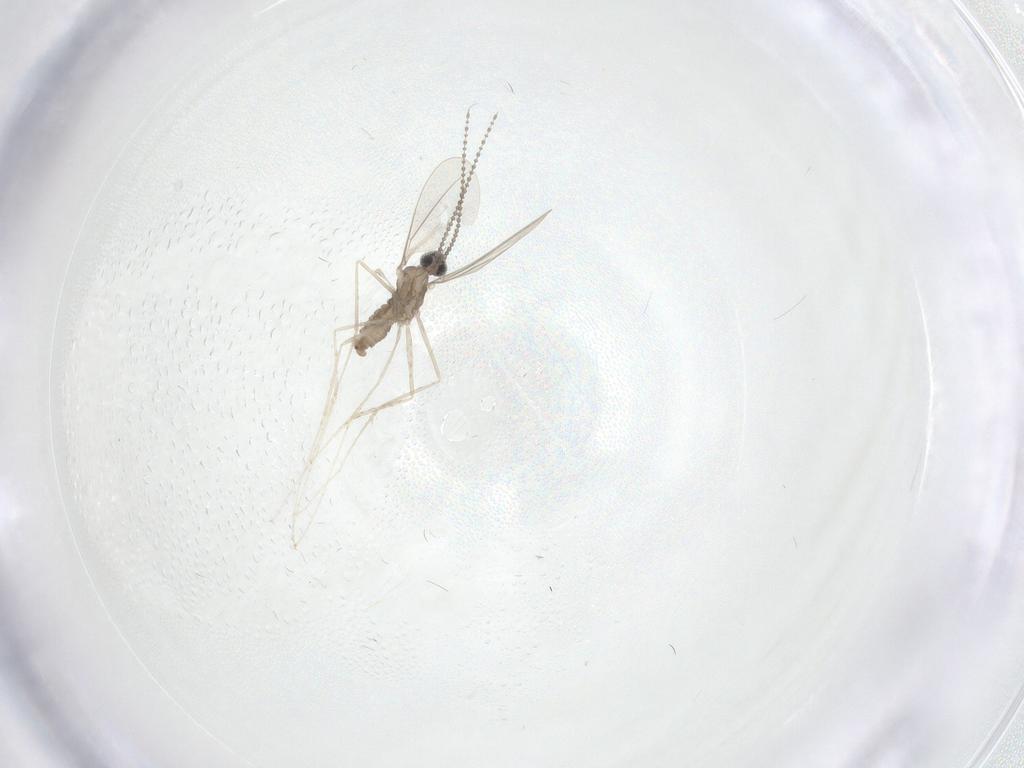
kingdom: Animalia
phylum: Arthropoda
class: Insecta
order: Diptera
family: Cecidomyiidae
